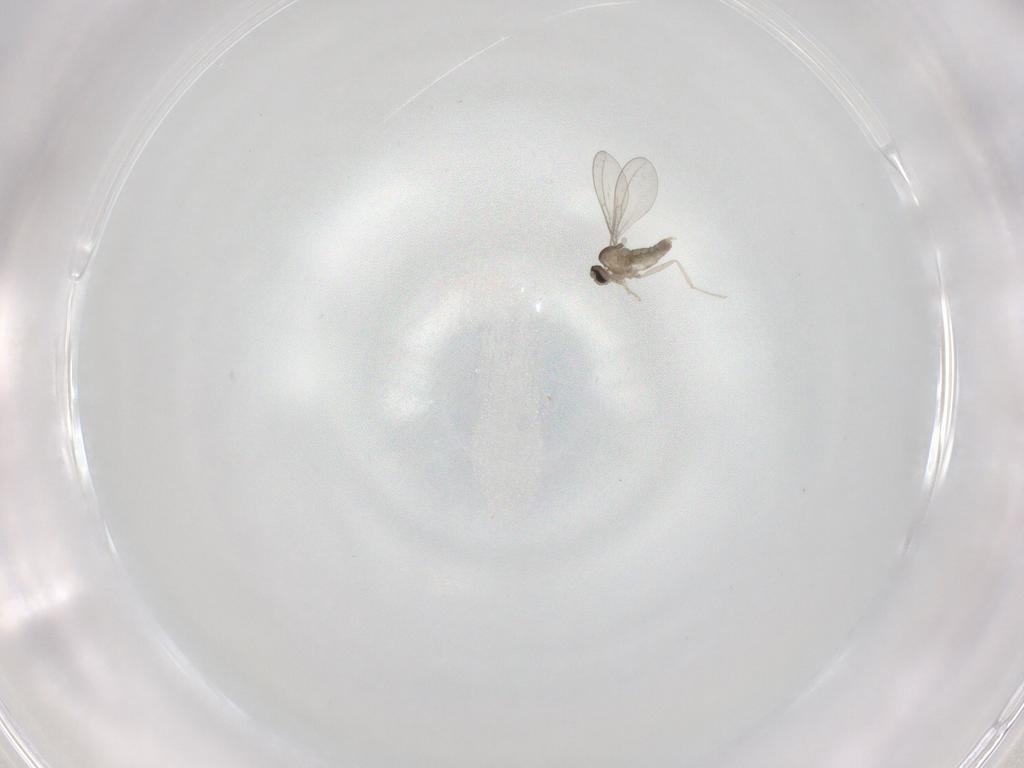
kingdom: Animalia
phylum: Arthropoda
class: Insecta
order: Diptera
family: Cecidomyiidae
